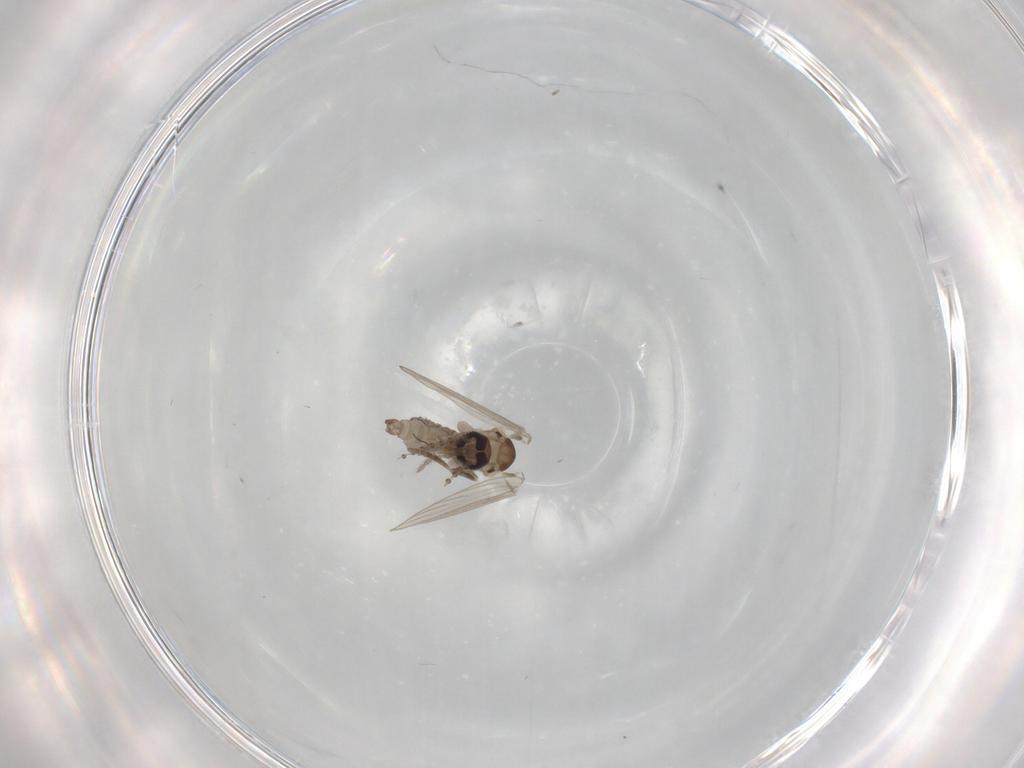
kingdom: Animalia
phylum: Arthropoda
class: Insecta
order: Diptera
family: Psychodidae
